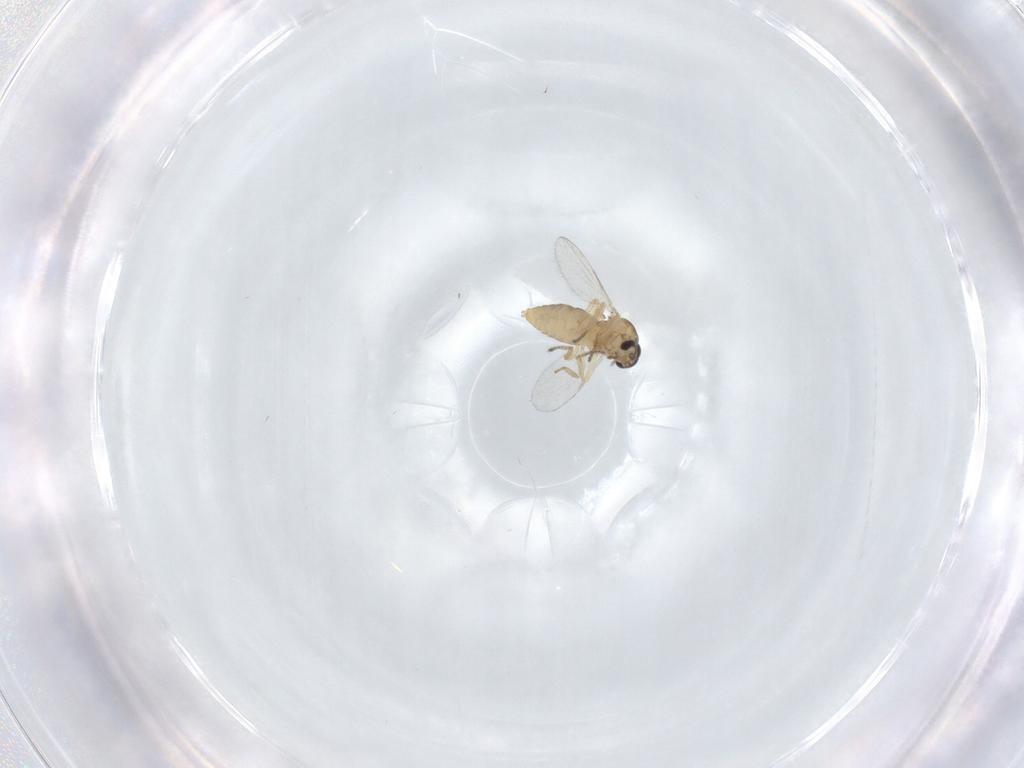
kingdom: Animalia
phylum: Arthropoda
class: Insecta
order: Diptera
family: Ceratopogonidae
